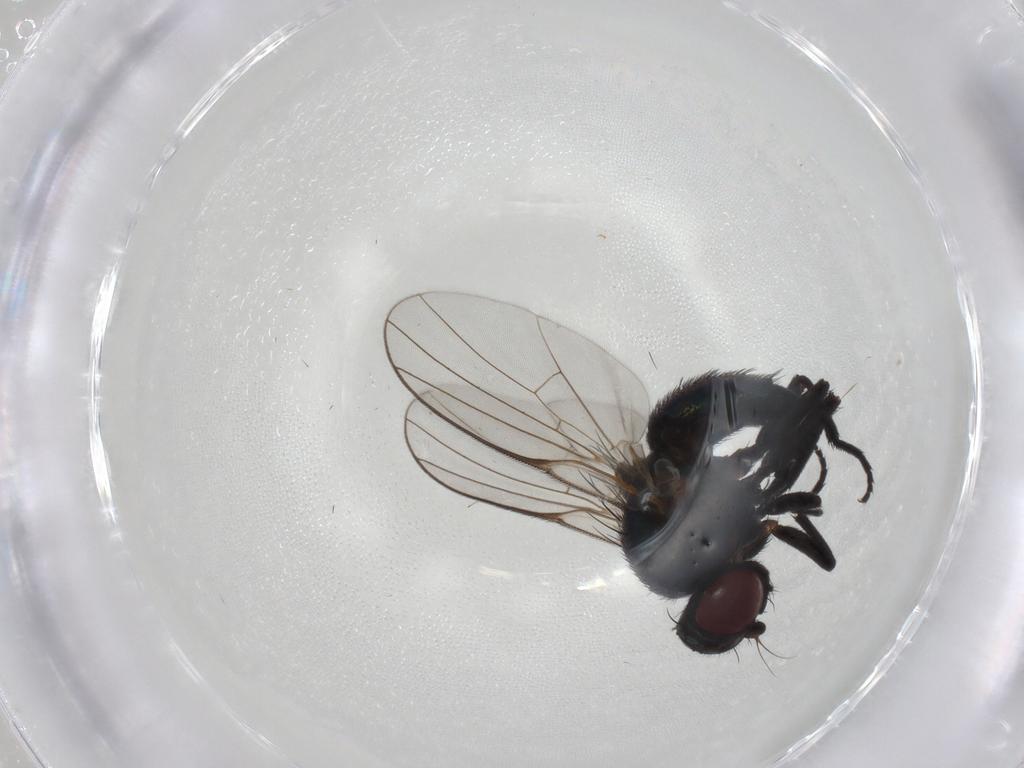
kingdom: Animalia
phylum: Arthropoda
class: Insecta
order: Diptera
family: Agromyzidae
